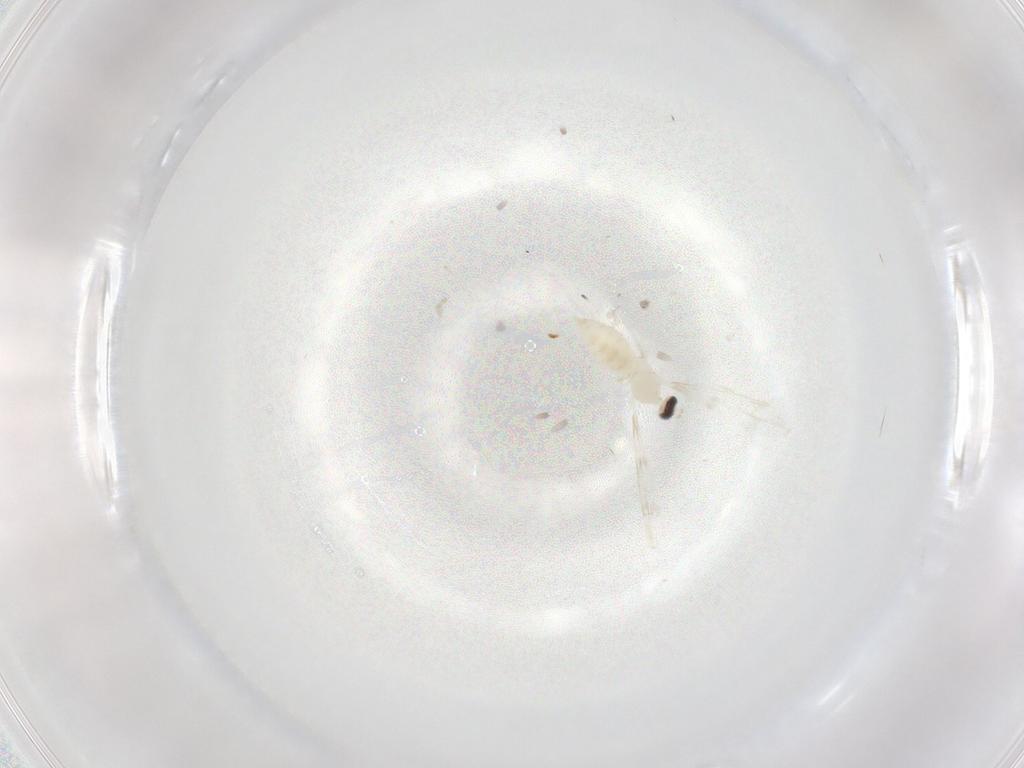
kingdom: Animalia
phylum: Arthropoda
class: Insecta
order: Diptera
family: Cecidomyiidae
